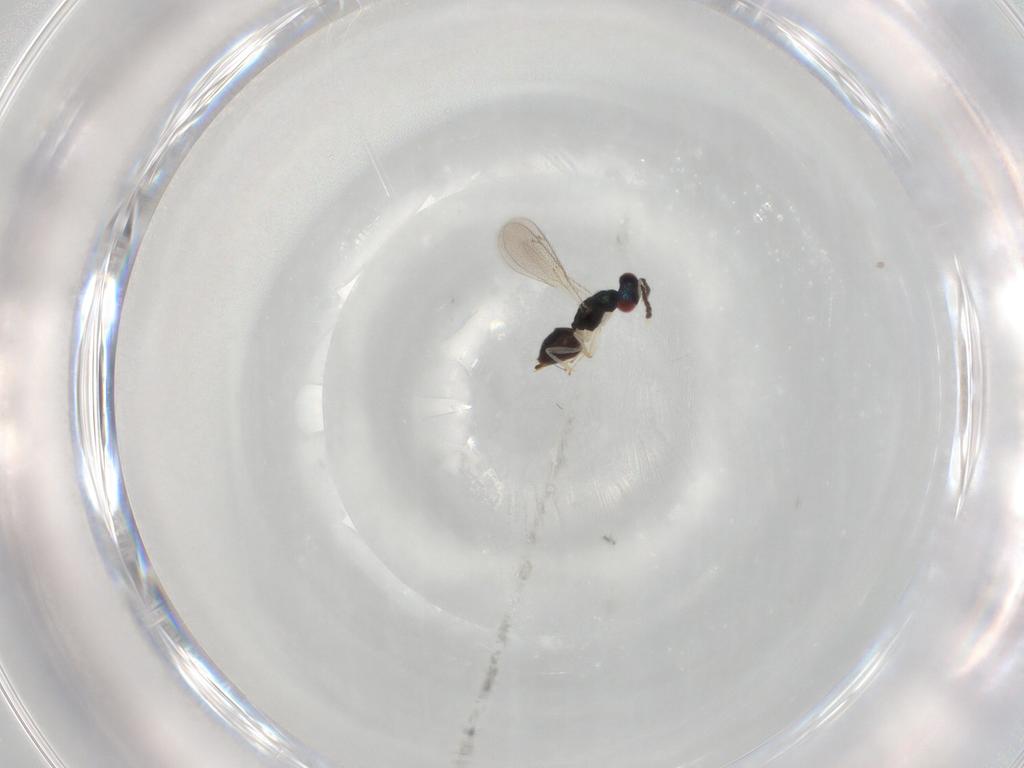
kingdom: Animalia
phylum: Arthropoda
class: Insecta
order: Hymenoptera
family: Eulophidae
